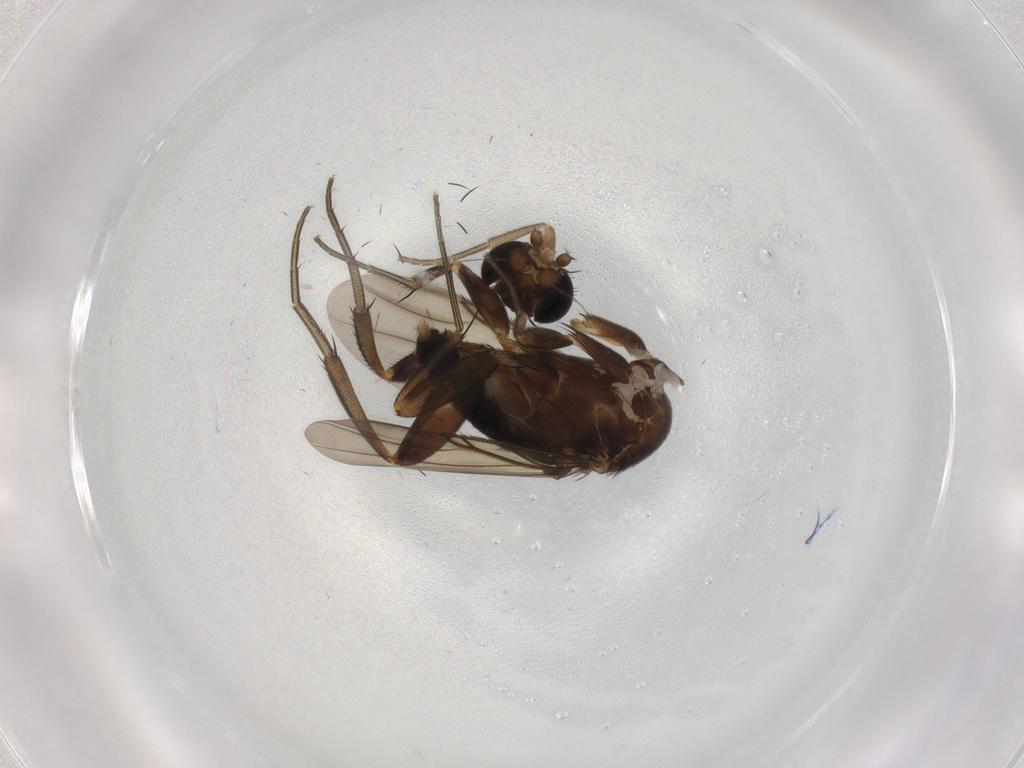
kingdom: Animalia
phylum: Arthropoda
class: Insecta
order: Diptera
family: Phoridae
